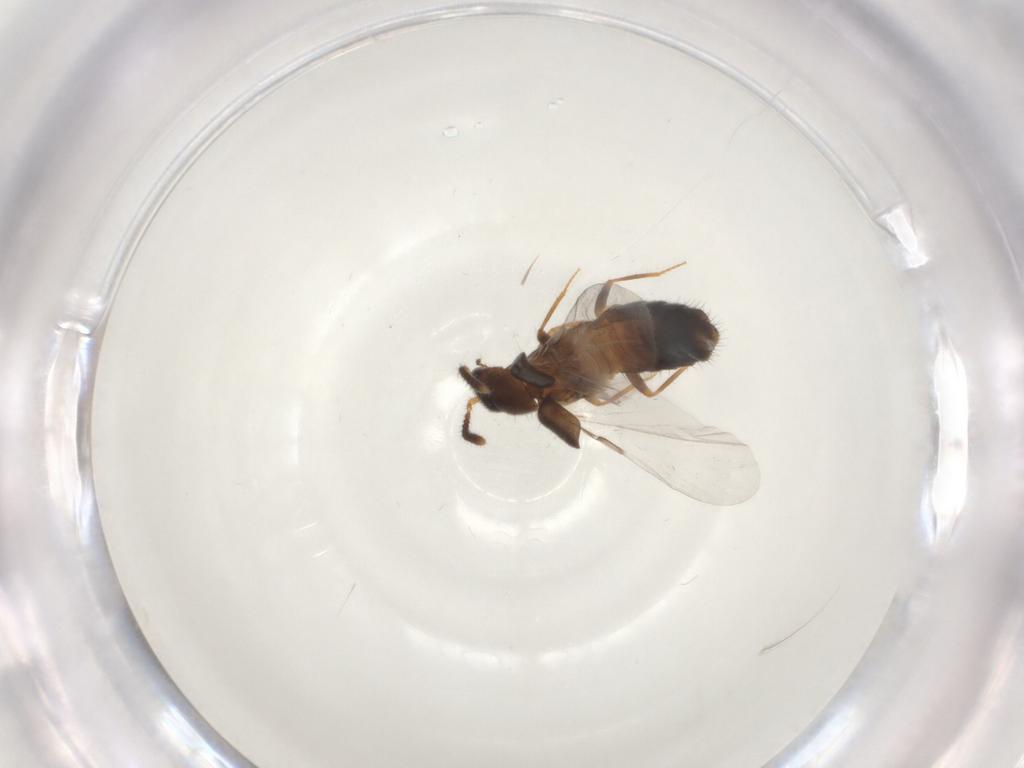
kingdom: Animalia
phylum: Arthropoda
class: Insecta
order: Coleoptera
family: Staphylinidae
